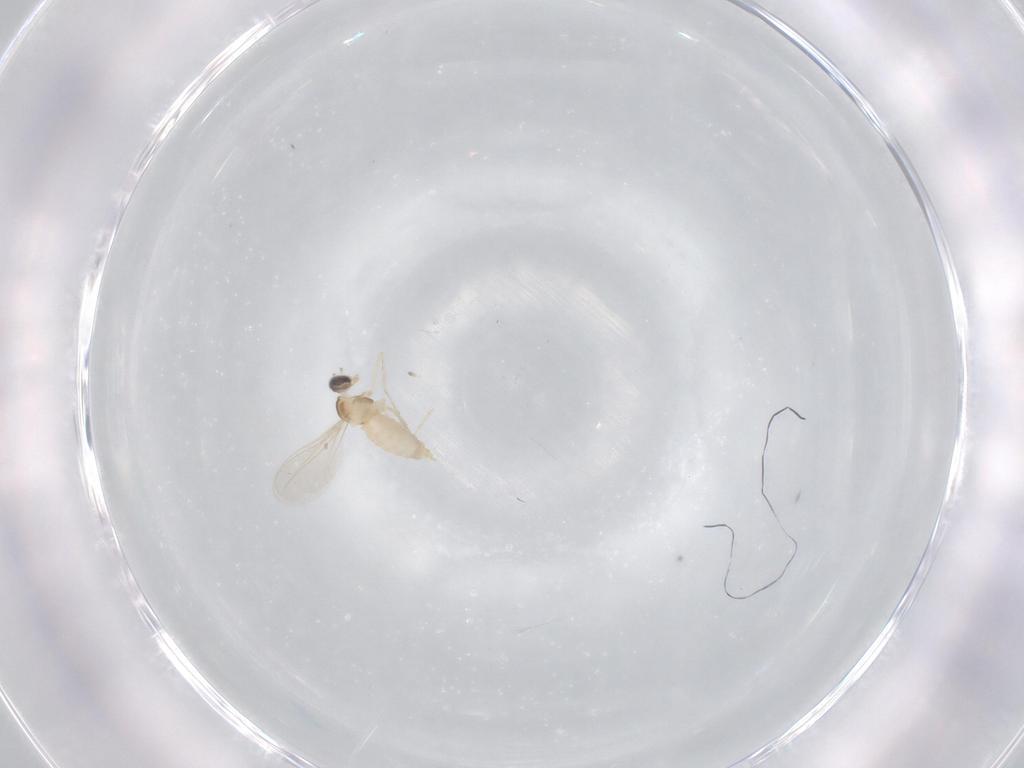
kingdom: Animalia
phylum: Arthropoda
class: Insecta
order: Diptera
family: Cecidomyiidae
